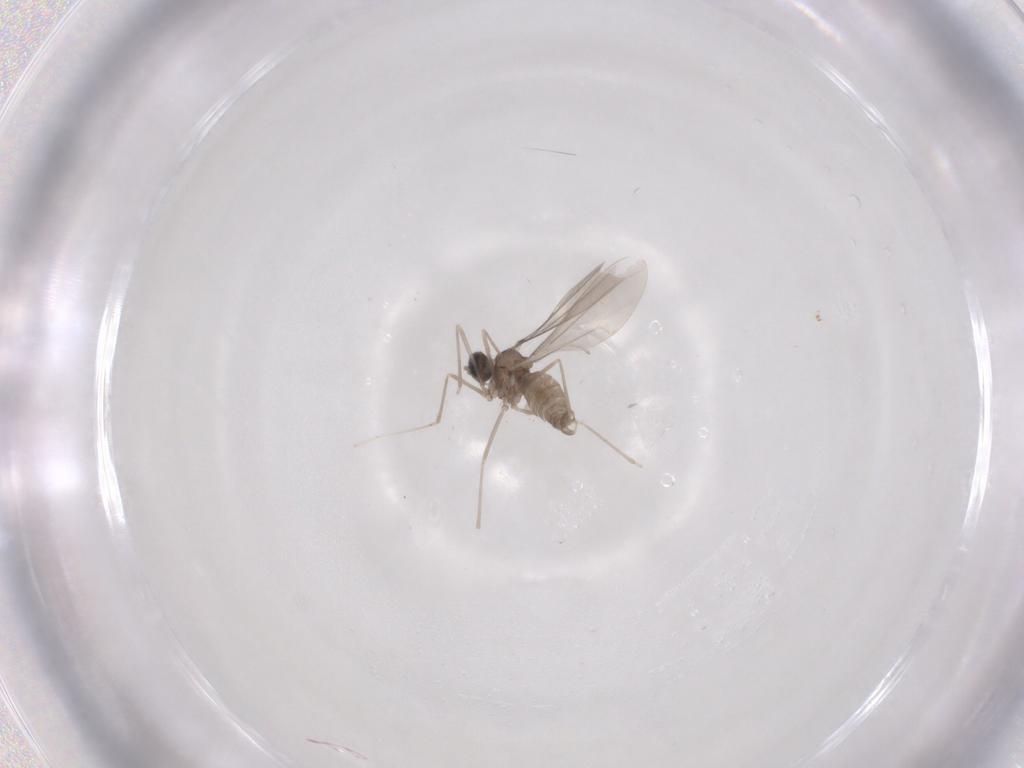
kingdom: Animalia
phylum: Arthropoda
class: Insecta
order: Diptera
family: Cecidomyiidae
